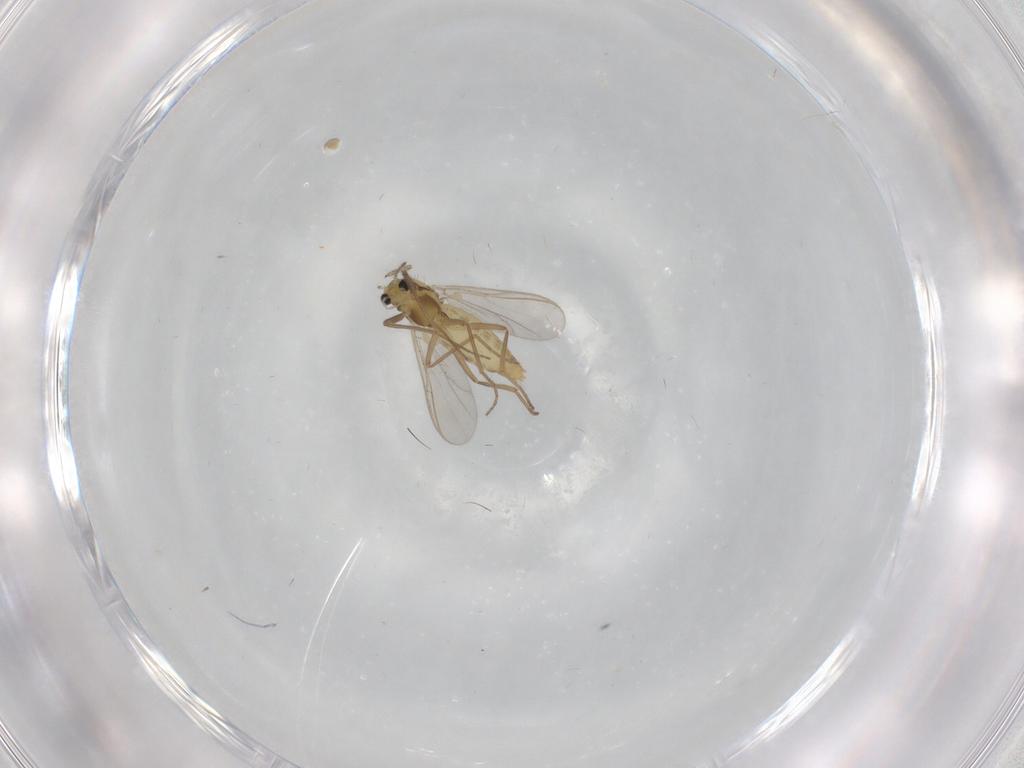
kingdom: Animalia
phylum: Arthropoda
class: Insecta
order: Diptera
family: Chironomidae
